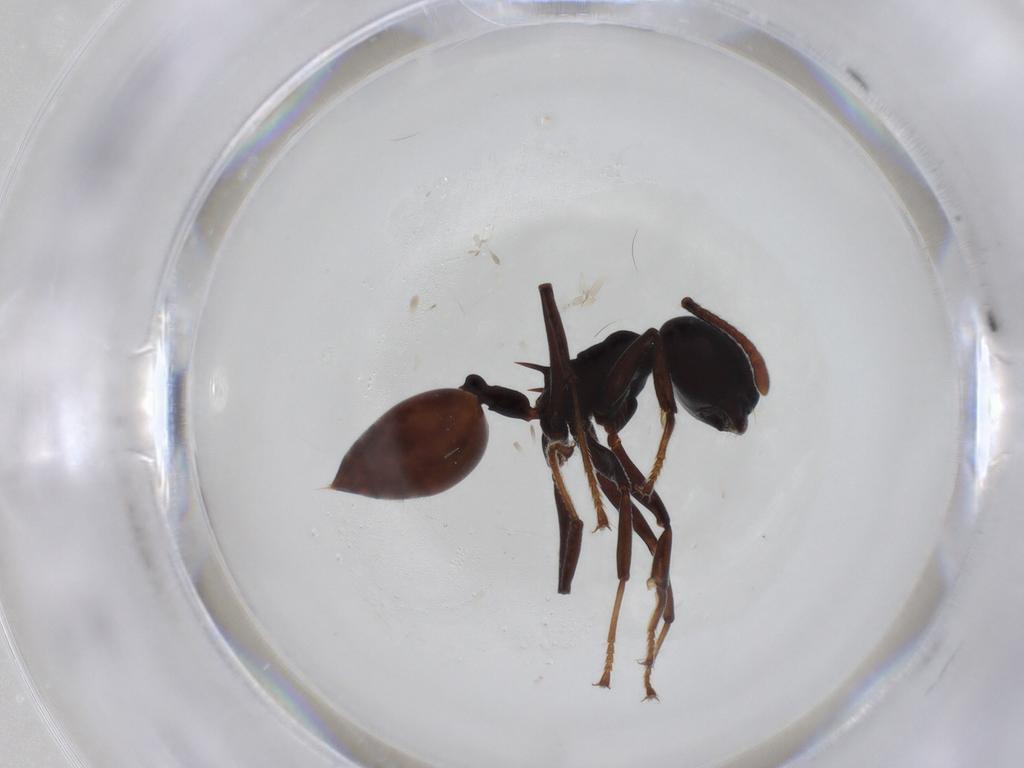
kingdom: Animalia
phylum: Arthropoda
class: Insecta
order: Hymenoptera
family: Formicidae
